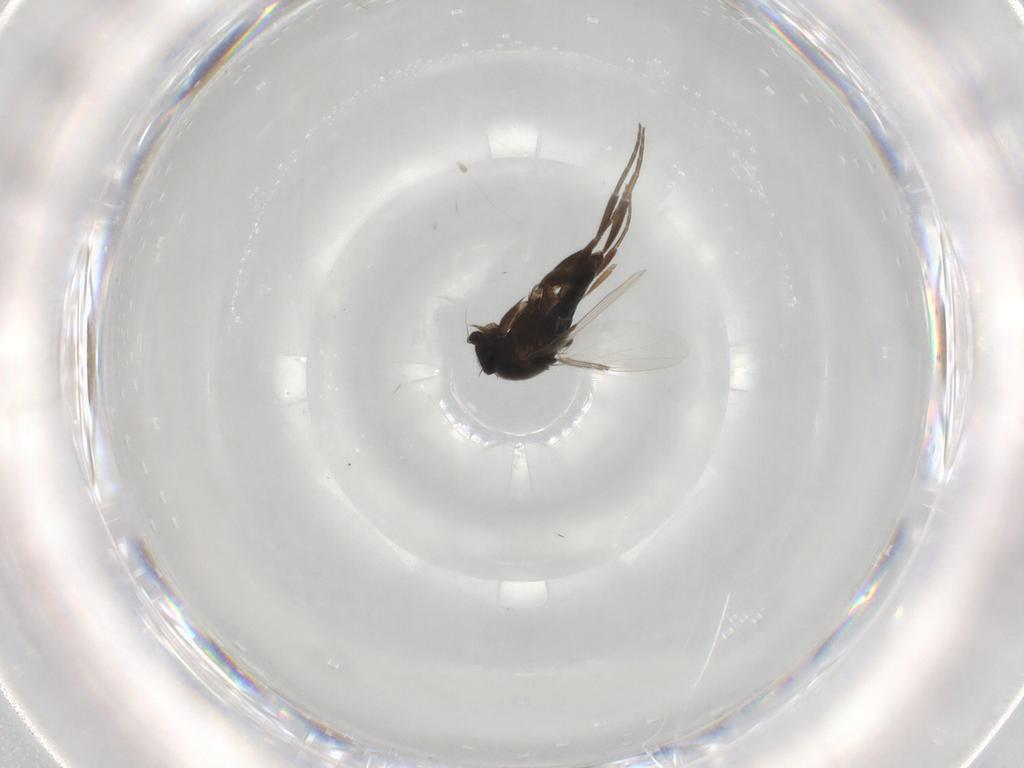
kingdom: Animalia
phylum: Arthropoda
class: Insecta
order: Diptera
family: Phoridae
